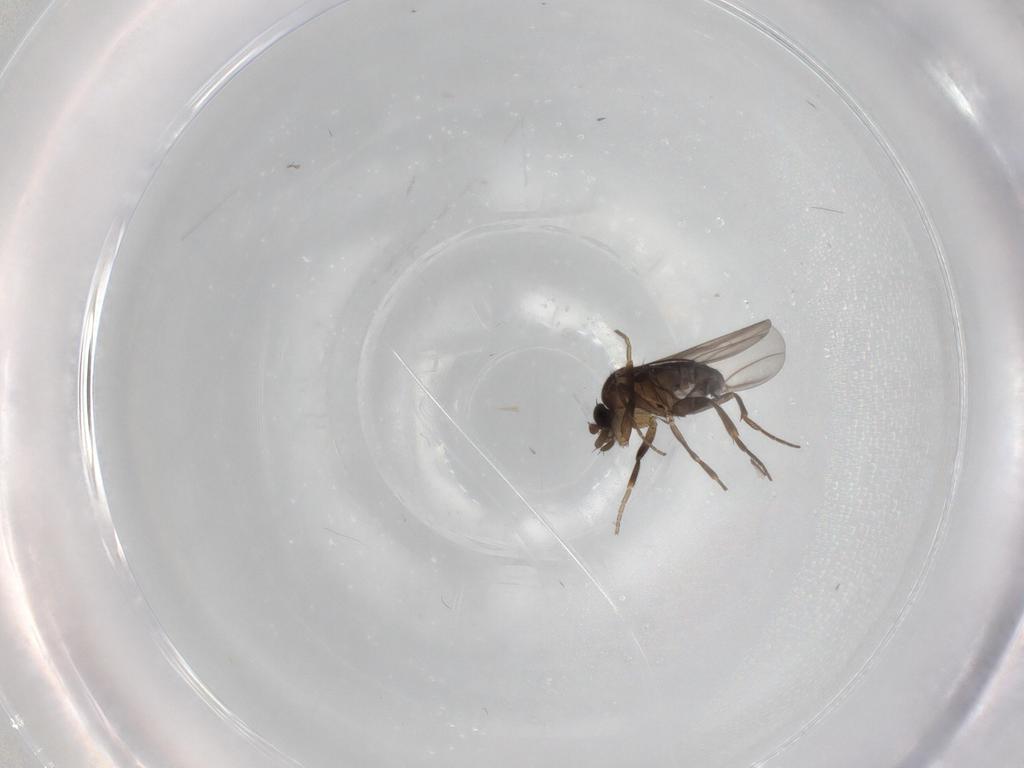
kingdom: Animalia
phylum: Arthropoda
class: Insecta
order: Diptera
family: Phoridae
